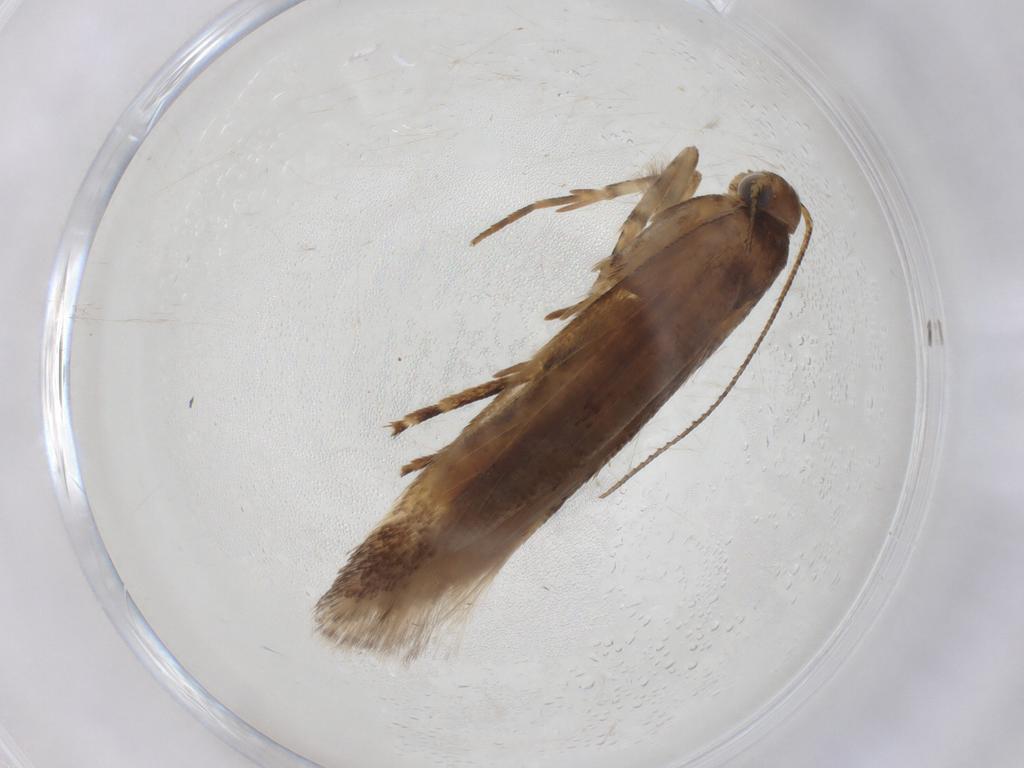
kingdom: Animalia
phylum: Arthropoda
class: Insecta
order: Lepidoptera
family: Gelechiidae
